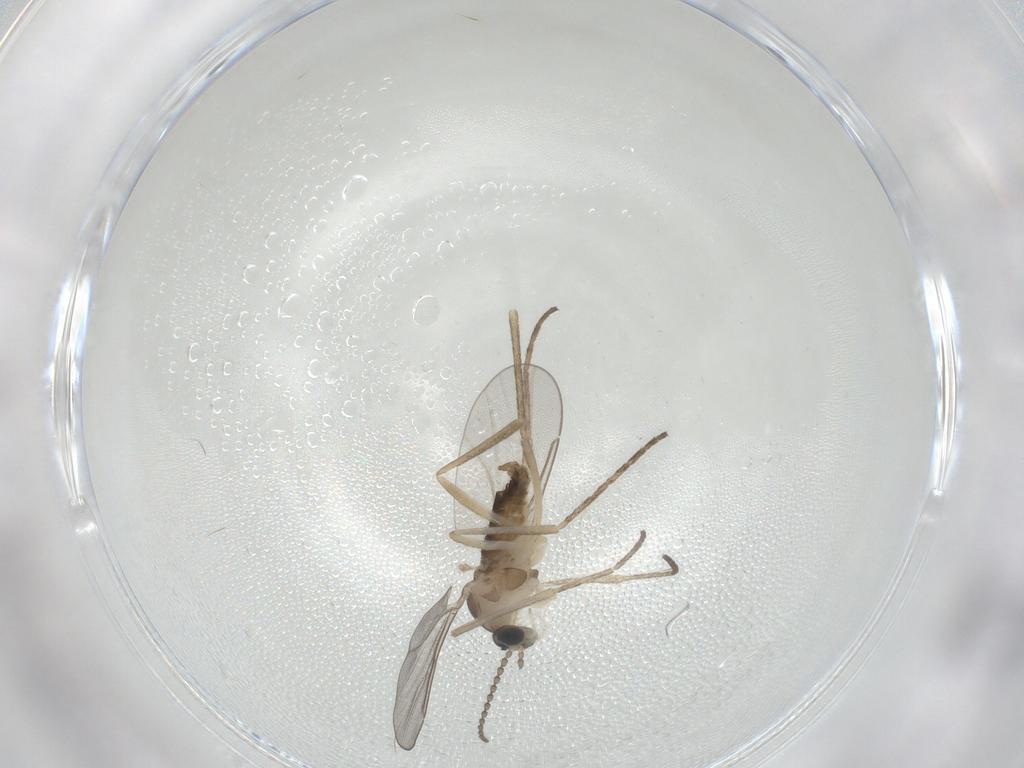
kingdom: Animalia
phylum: Arthropoda
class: Insecta
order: Diptera
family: Cecidomyiidae
